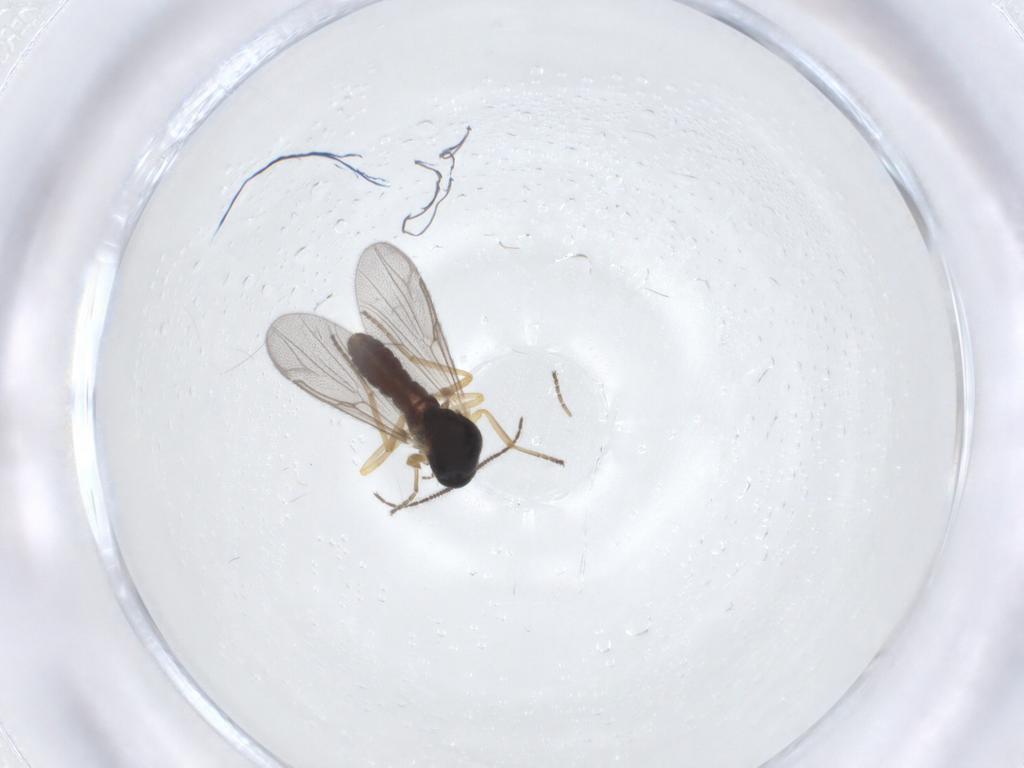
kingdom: Animalia
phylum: Arthropoda
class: Insecta
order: Diptera
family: Ceratopogonidae
